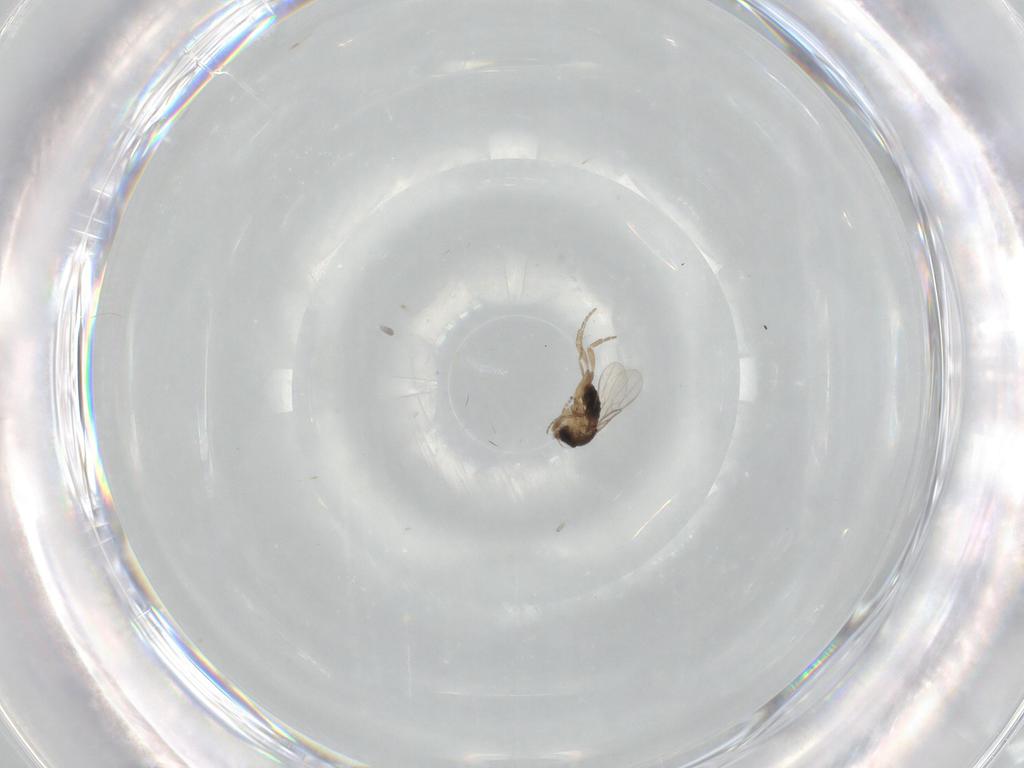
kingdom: Animalia
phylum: Arthropoda
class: Insecta
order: Diptera
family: Phoridae
